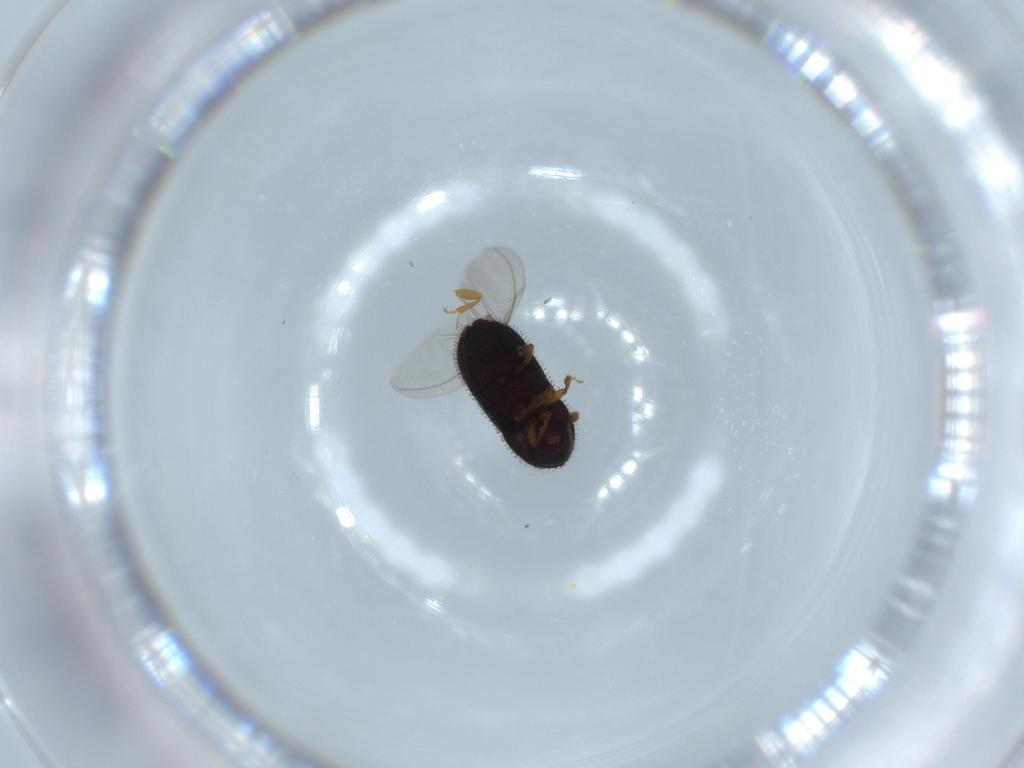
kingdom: Animalia
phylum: Arthropoda
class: Insecta
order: Coleoptera
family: Curculionidae
